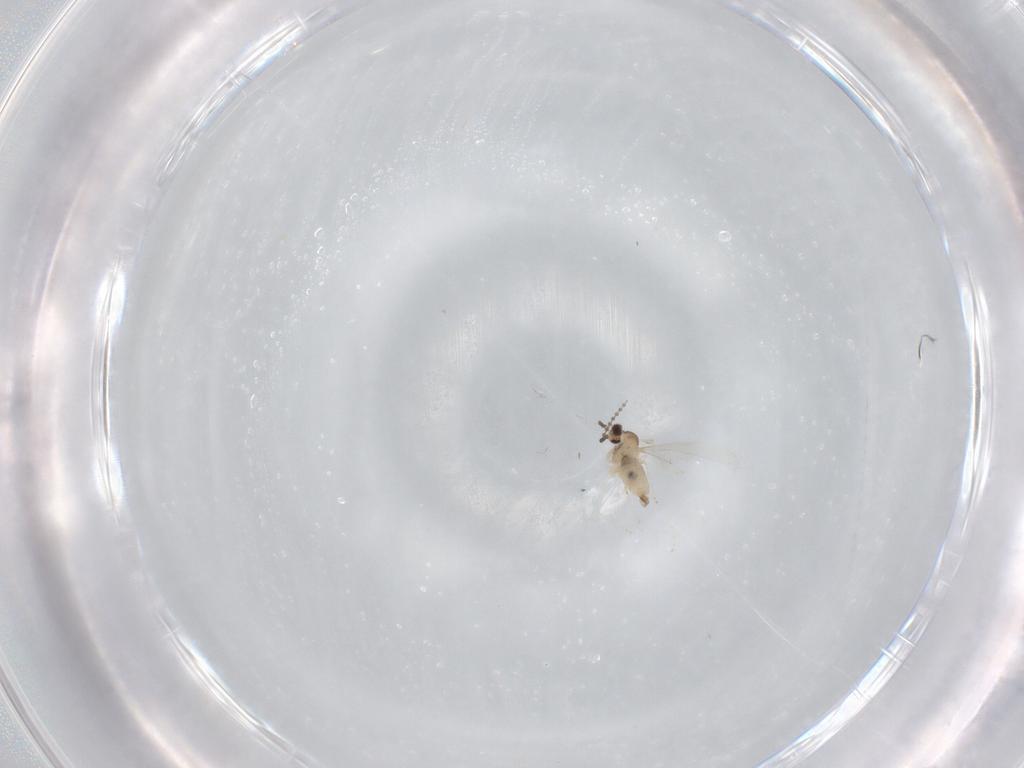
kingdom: Animalia
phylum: Arthropoda
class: Insecta
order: Diptera
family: Cecidomyiidae
